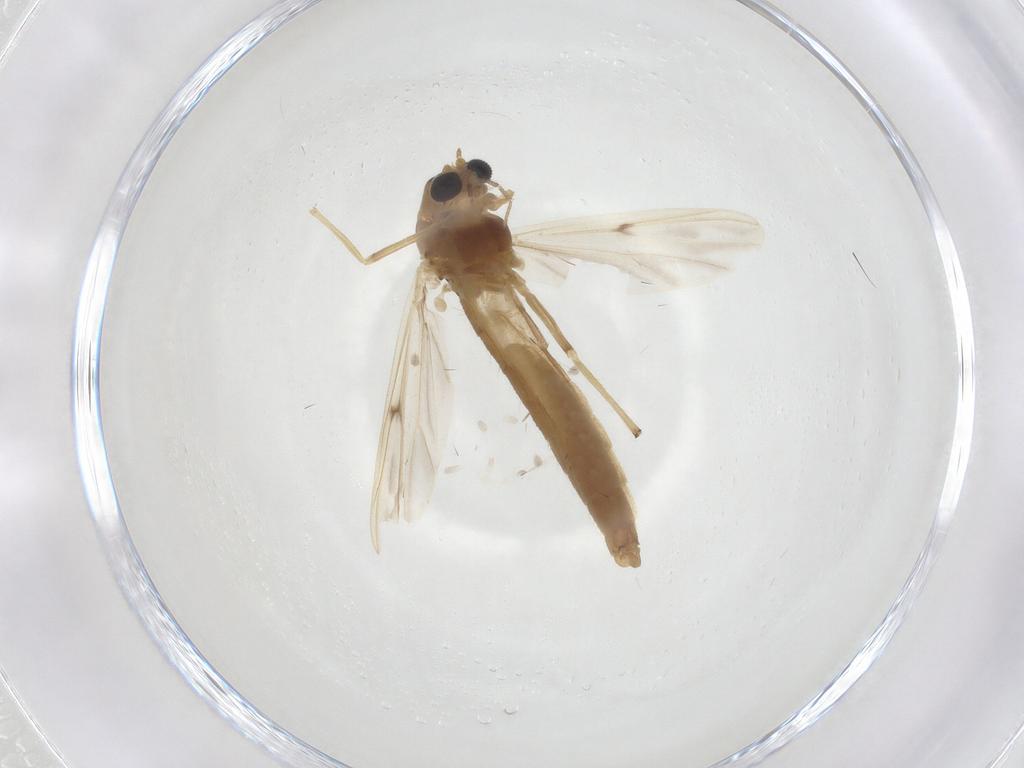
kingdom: Animalia
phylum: Arthropoda
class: Insecta
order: Diptera
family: Chironomidae
